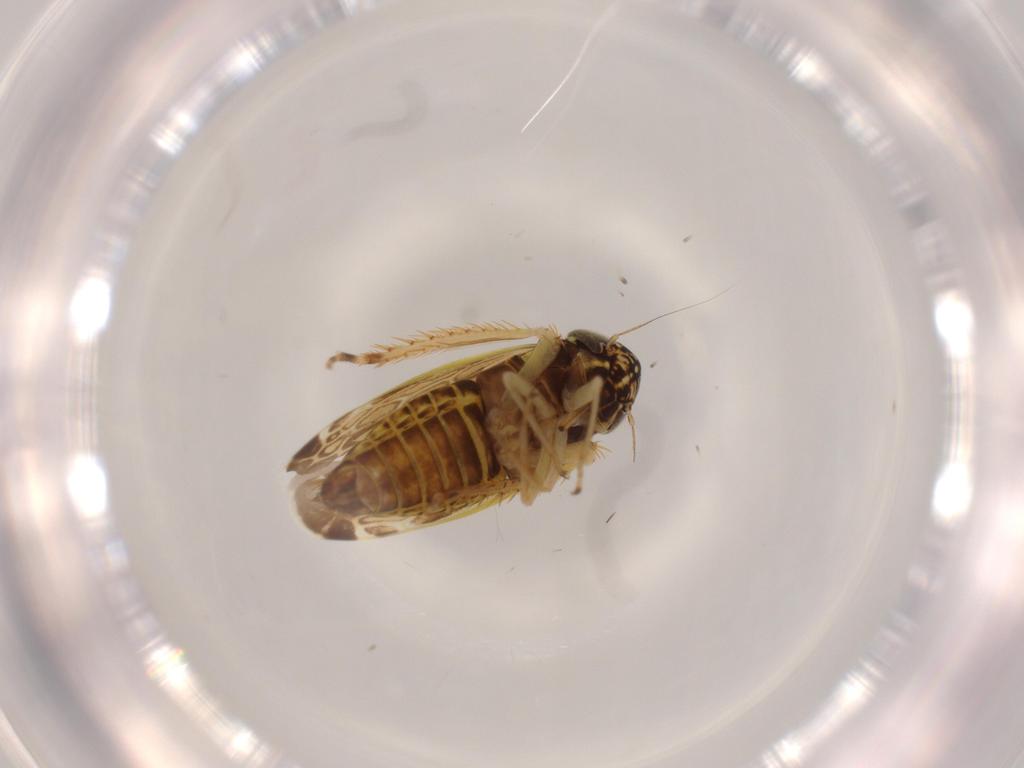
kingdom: Animalia
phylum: Arthropoda
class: Insecta
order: Hemiptera
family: Cicadellidae
